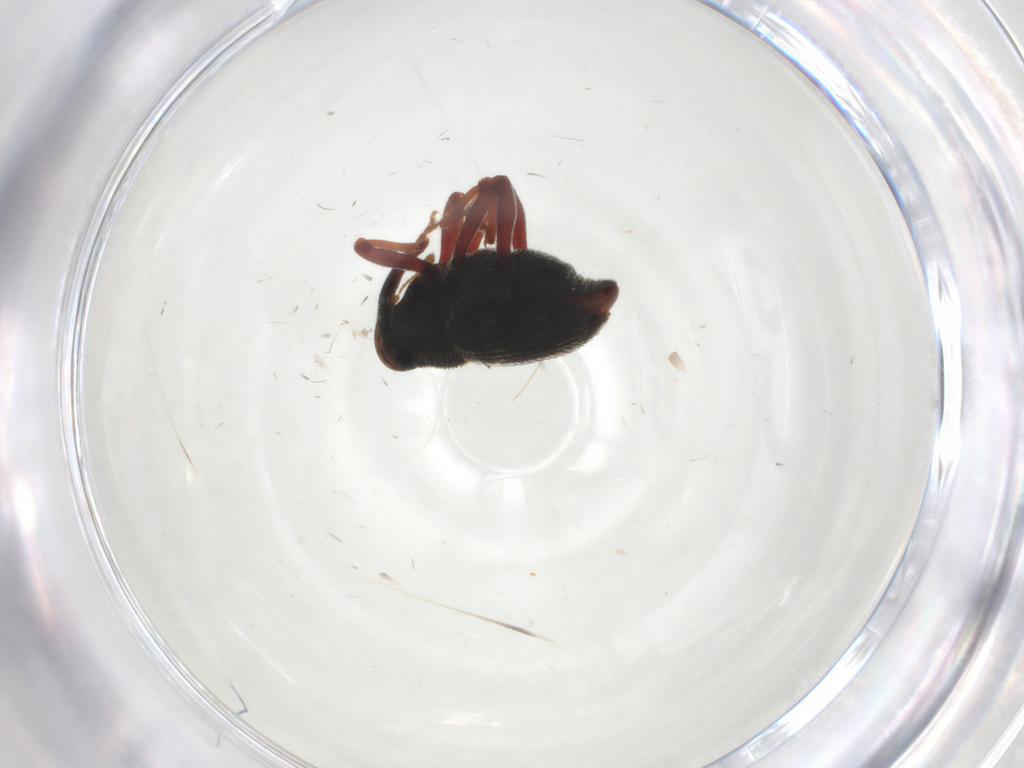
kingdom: Animalia
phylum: Arthropoda
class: Insecta
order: Coleoptera
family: Curculionidae
